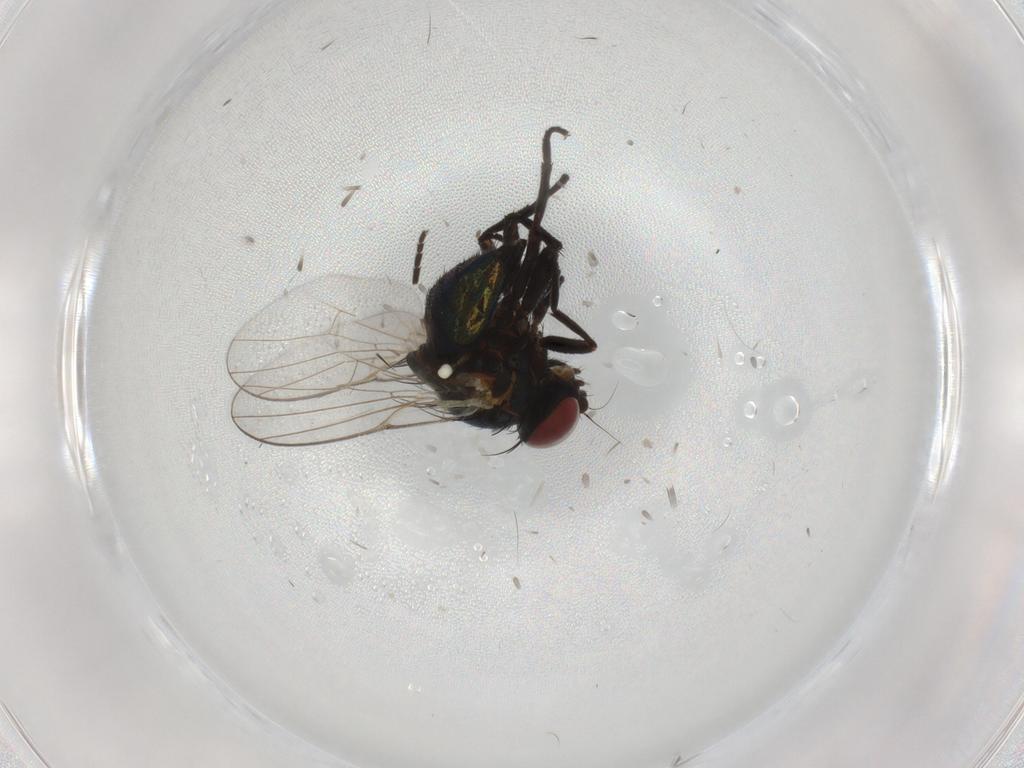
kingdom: Animalia
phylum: Arthropoda
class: Insecta
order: Diptera
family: Agromyzidae
